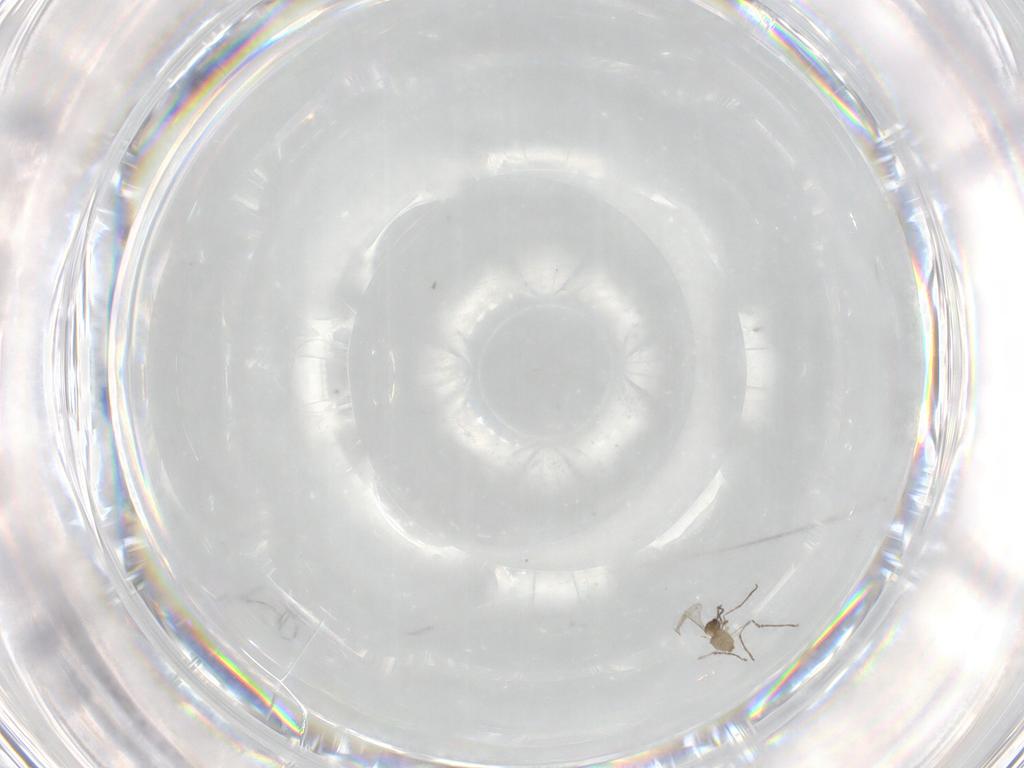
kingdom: Animalia
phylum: Arthropoda
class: Insecta
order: Diptera
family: Cecidomyiidae
